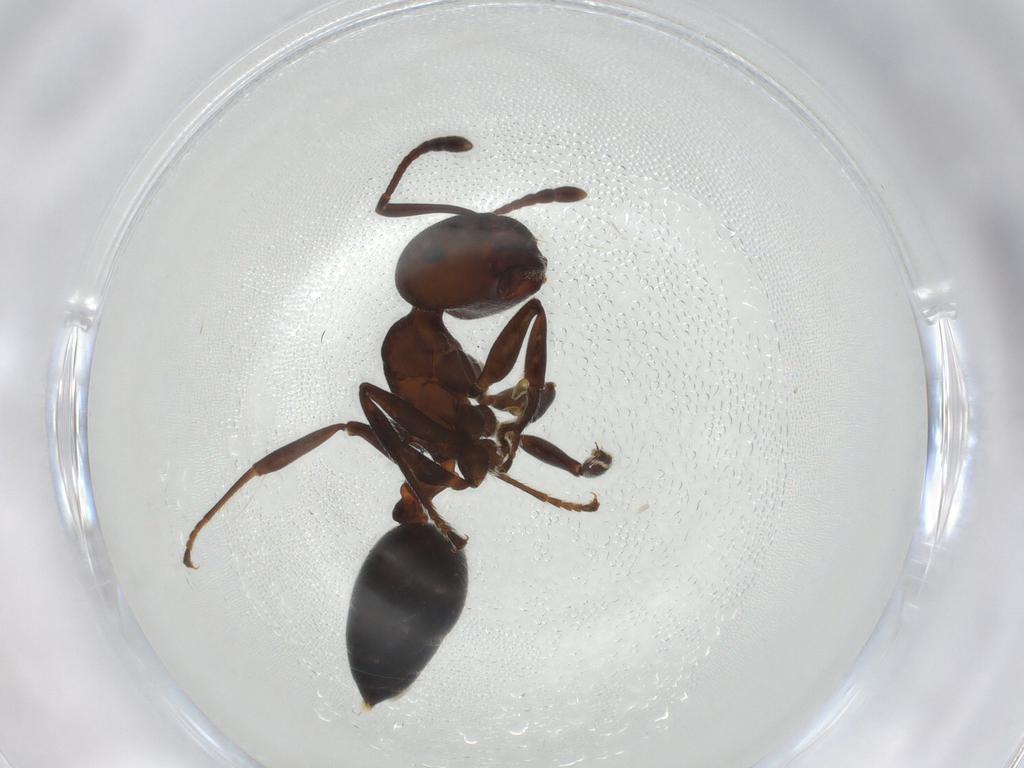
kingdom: Animalia
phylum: Arthropoda
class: Insecta
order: Hymenoptera
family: Formicidae
